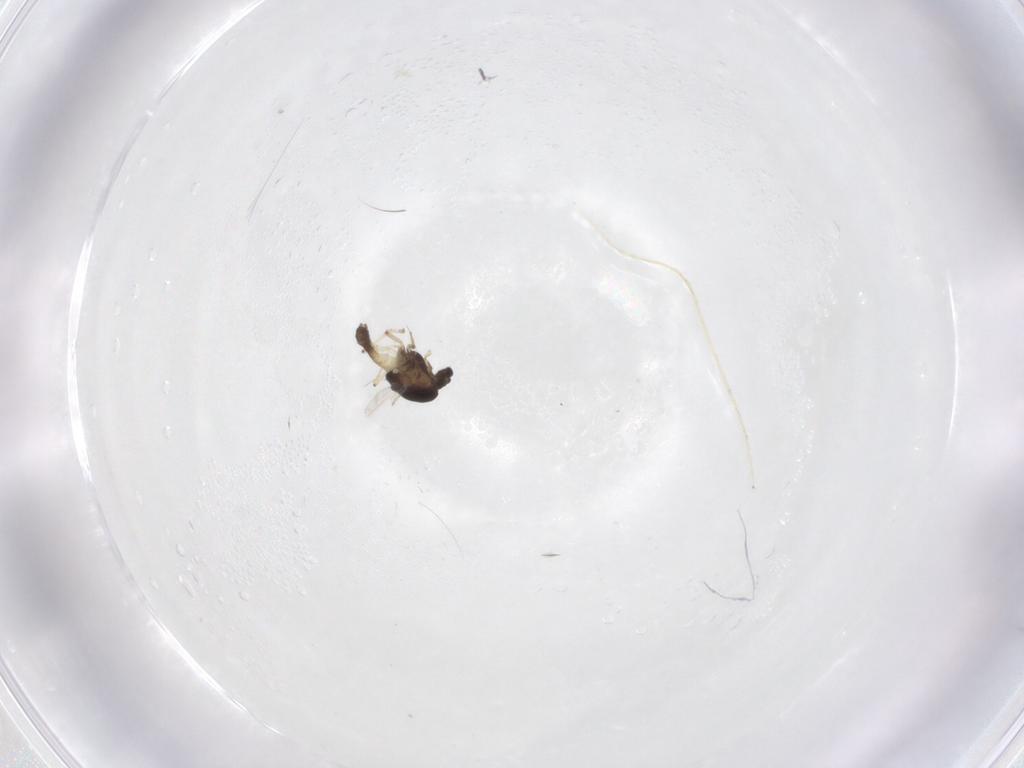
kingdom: Animalia
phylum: Arthropoda
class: Insecta
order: Diptera
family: Chironomidae
